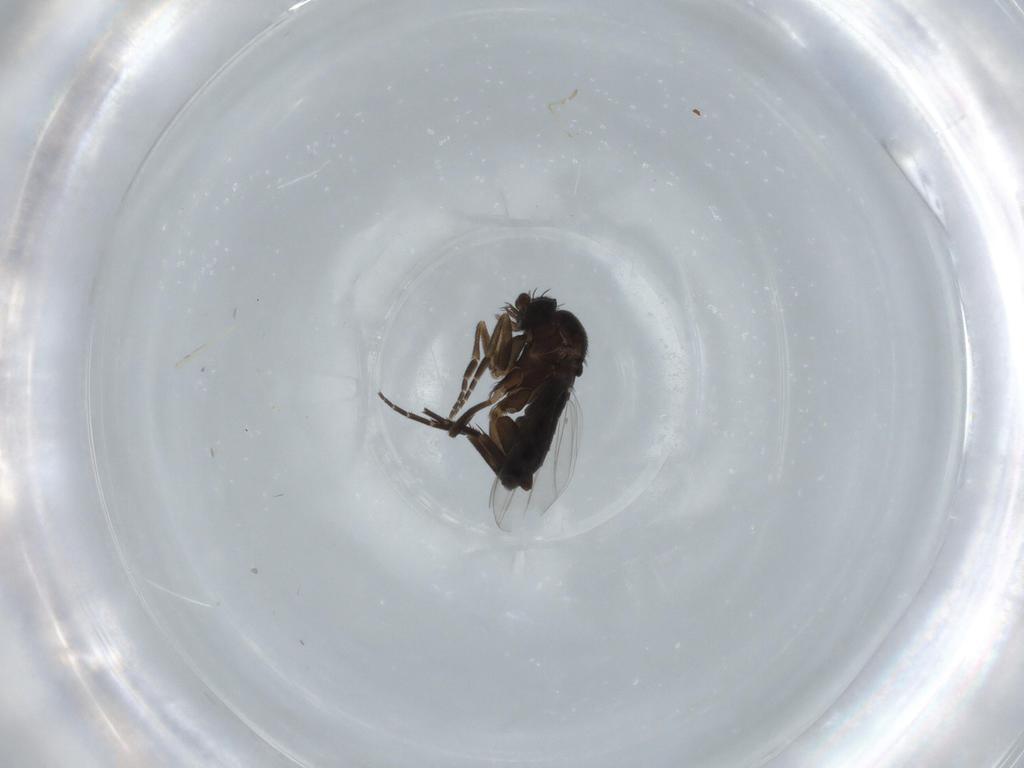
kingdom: Animalia
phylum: Arthropoda
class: Insecta
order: Diptera
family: Phoridae
